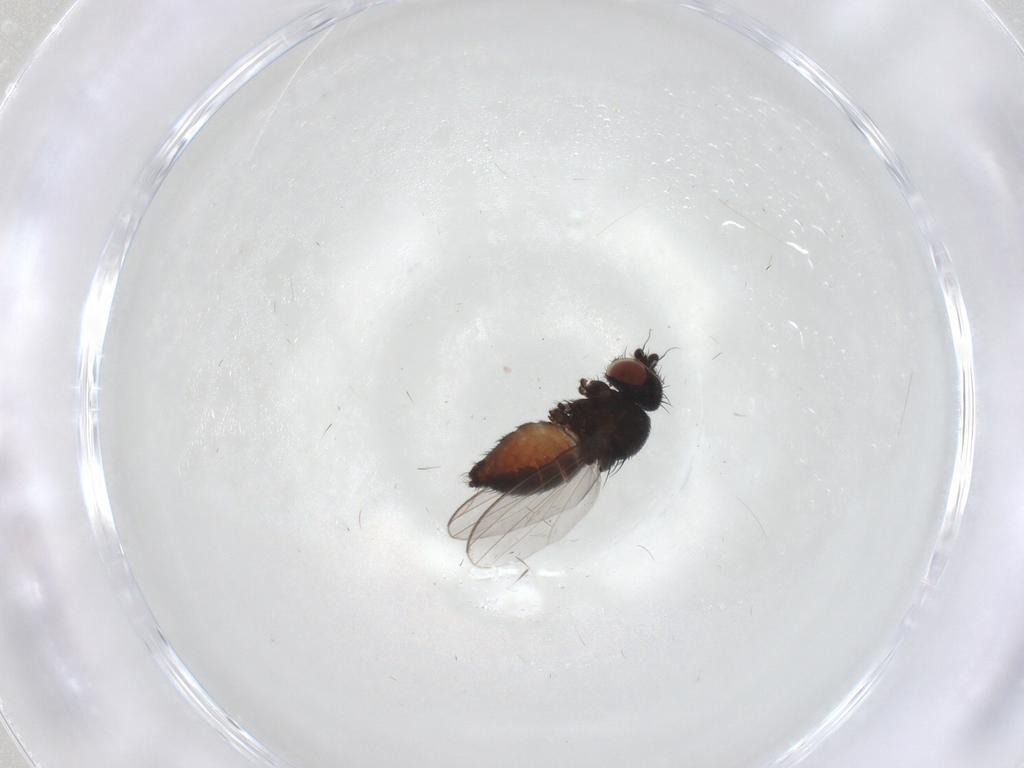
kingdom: Animalia
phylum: Arthropoda
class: Insecta
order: Diptera
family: Milichiidae
